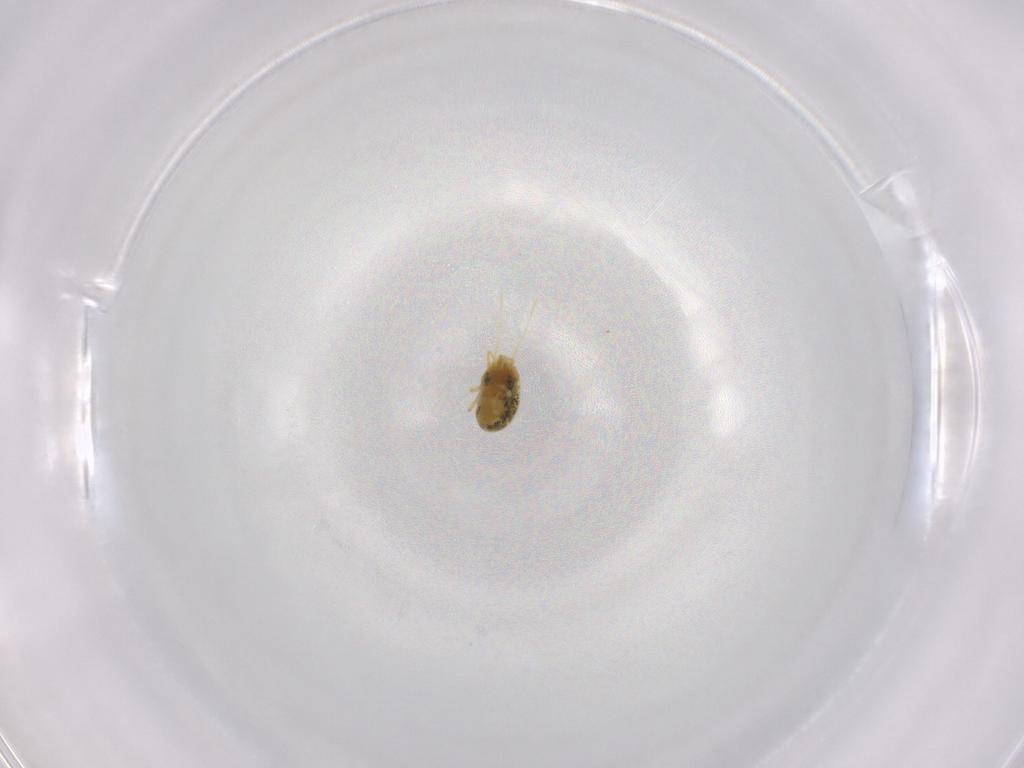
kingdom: Animalia
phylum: Arthropoda
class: Arachnida
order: Trombidiformes
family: Tetranychidae
